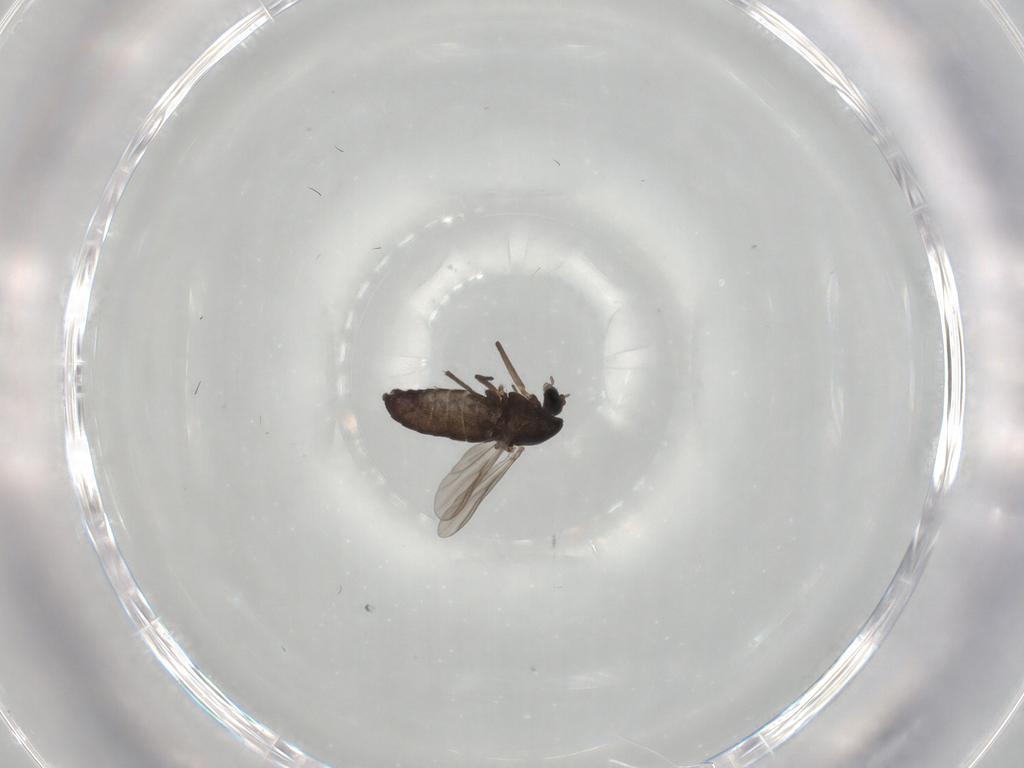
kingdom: Animalia
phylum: Arthropoda
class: Insecta
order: Diptera
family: Chironomidae
